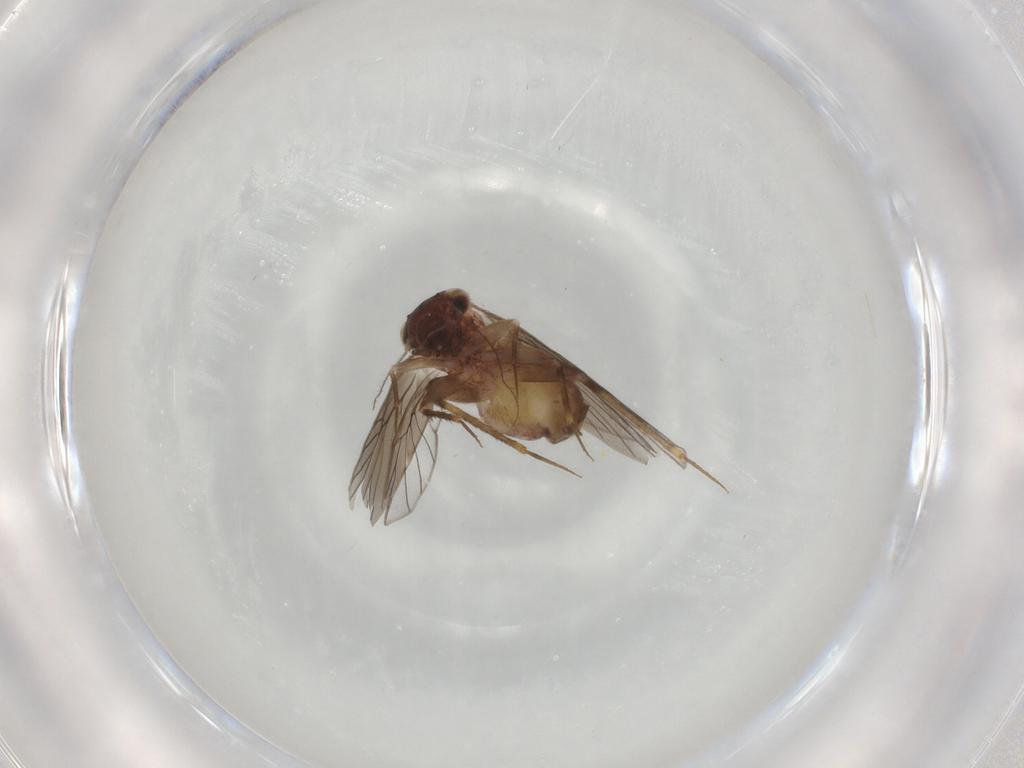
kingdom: Animalia
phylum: Arthropoda
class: Insecta
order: Psocodea
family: Lepidopsocidae
